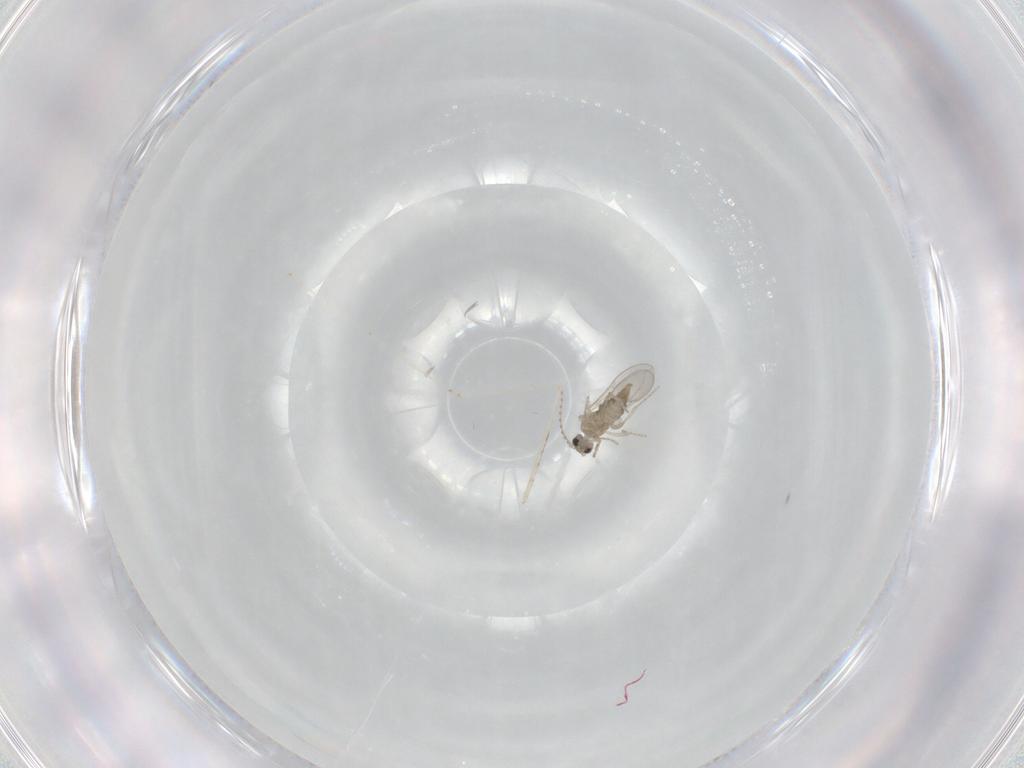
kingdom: Animalia
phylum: Arthropoda
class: Insecta
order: Diptera
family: Cecidomyiidae
